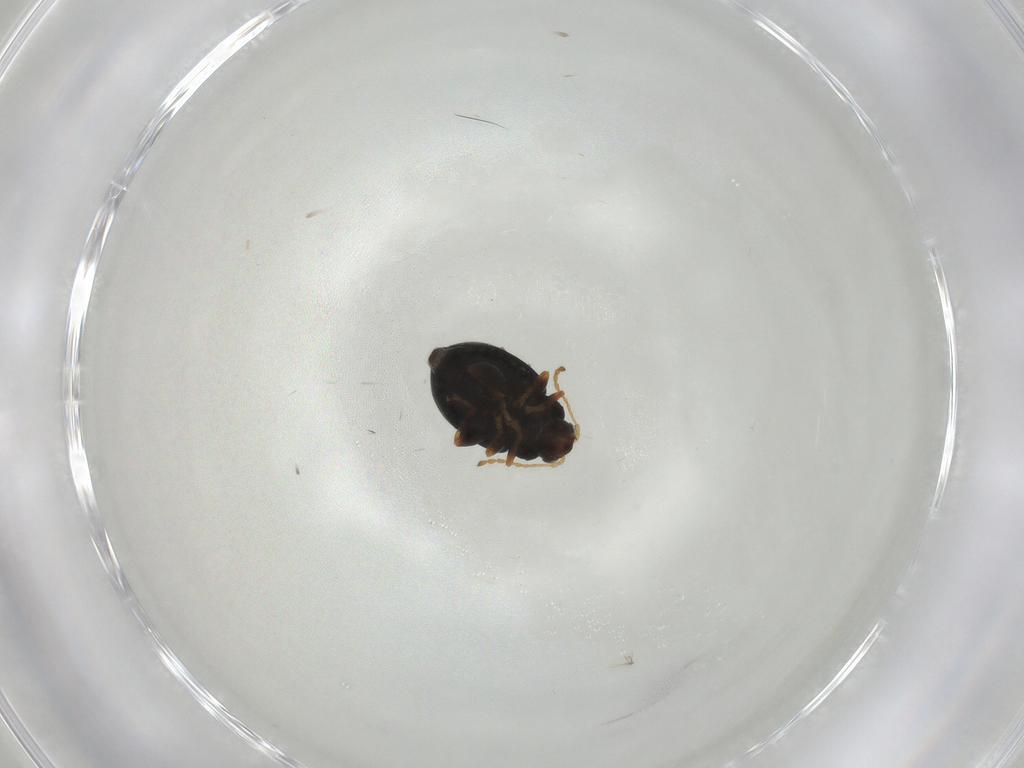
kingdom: Animalia
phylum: Arthropoda
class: Insecta
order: Coleoptera
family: Chrysomelidae
